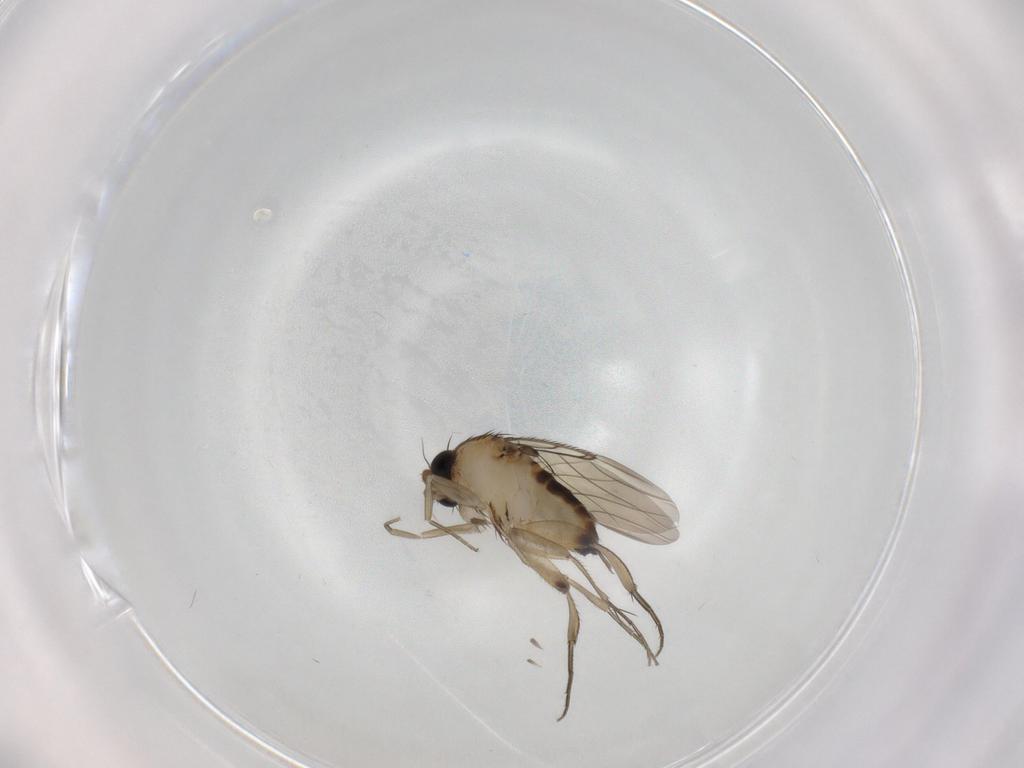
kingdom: Animalia
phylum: Arthropoda
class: Insecta
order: Diptera
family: Phoridae
